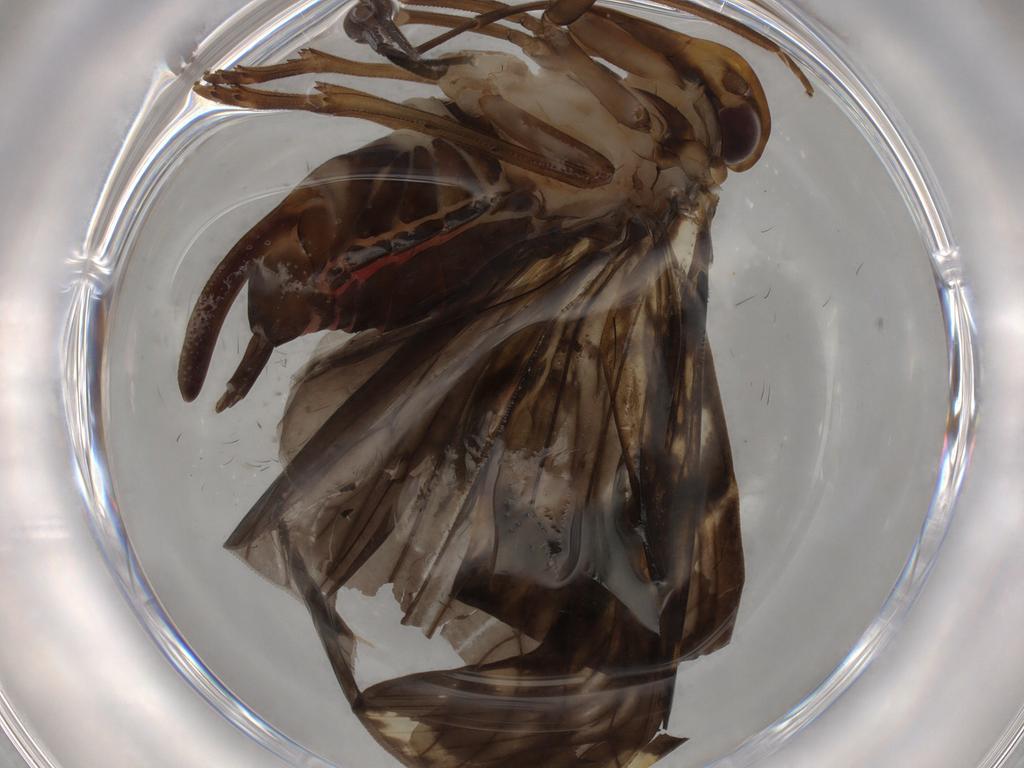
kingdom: Animalia
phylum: Arthropoda
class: Insecta
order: Hemiptera
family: Cixiidae
